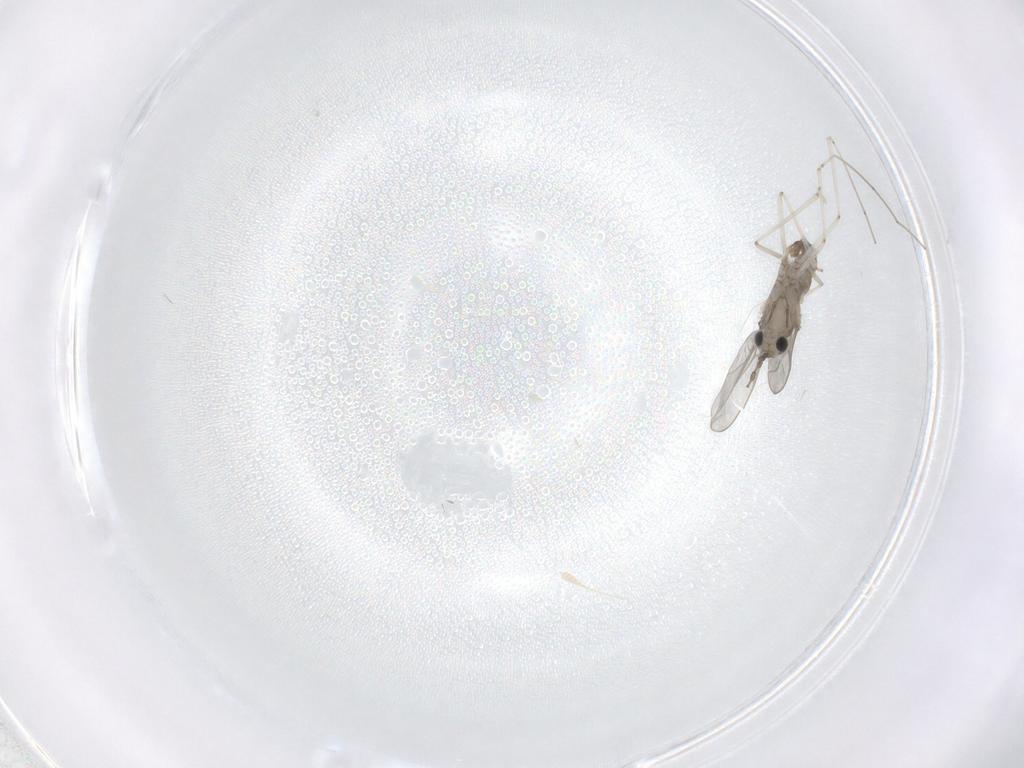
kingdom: Animalia
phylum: Arthropoda
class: Insecta
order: Diptera
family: Cecidomyiidae
